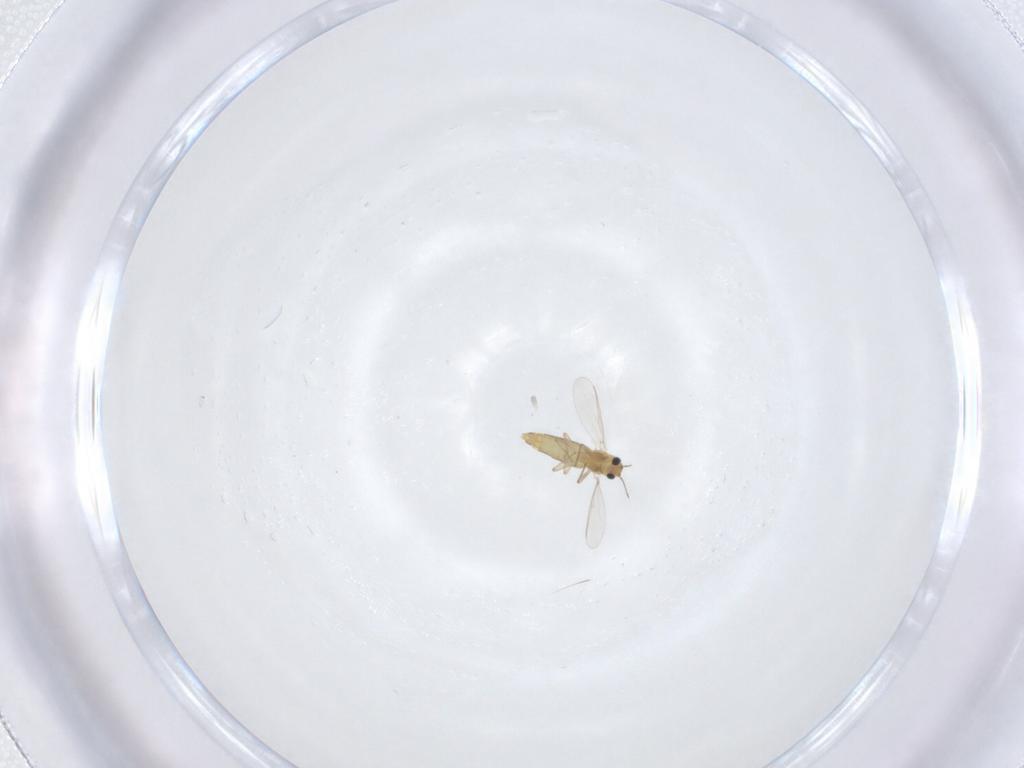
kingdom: Animalia
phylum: Arthropoda
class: Insecta
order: Diptera
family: Chironomidae
